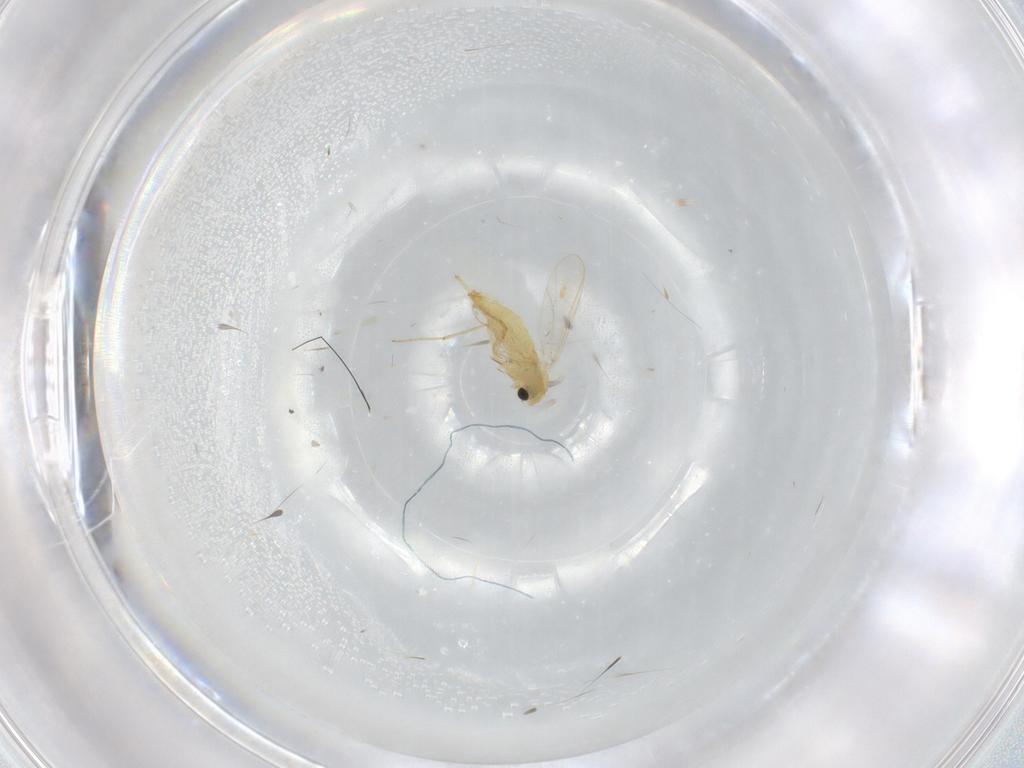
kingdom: Animalia
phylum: Arthropoda
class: Insecta
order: Diptera
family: Chironomidae
